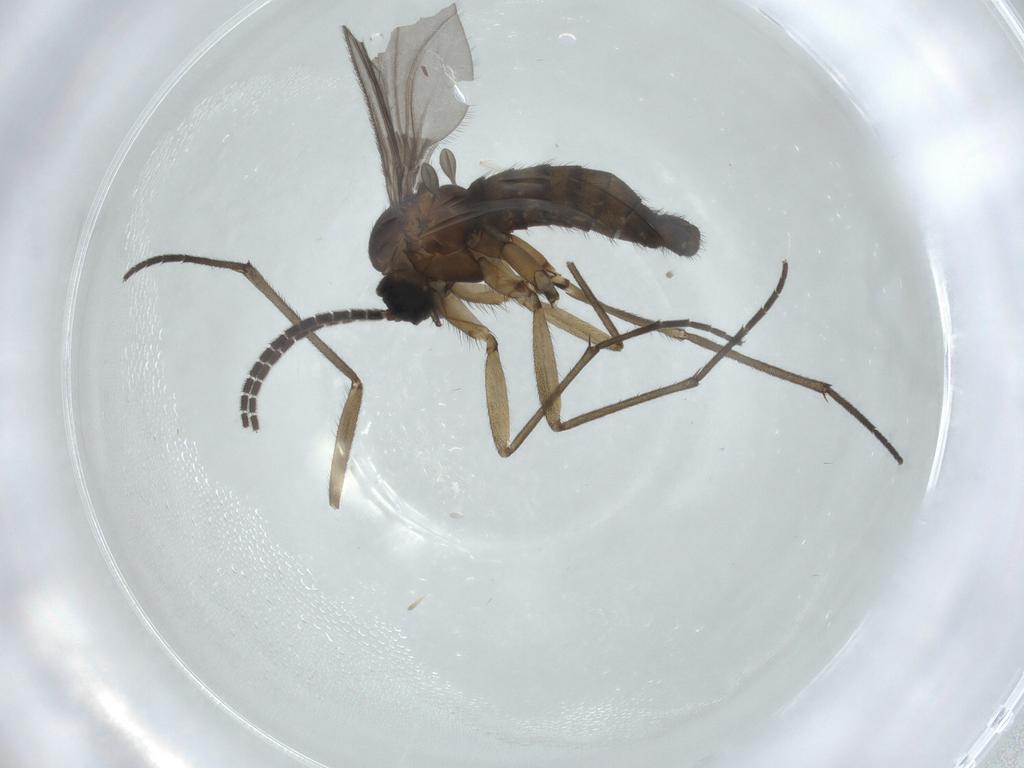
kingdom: Animalia
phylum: Arthropoda
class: Insecta
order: Diptera
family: Sciaridae
